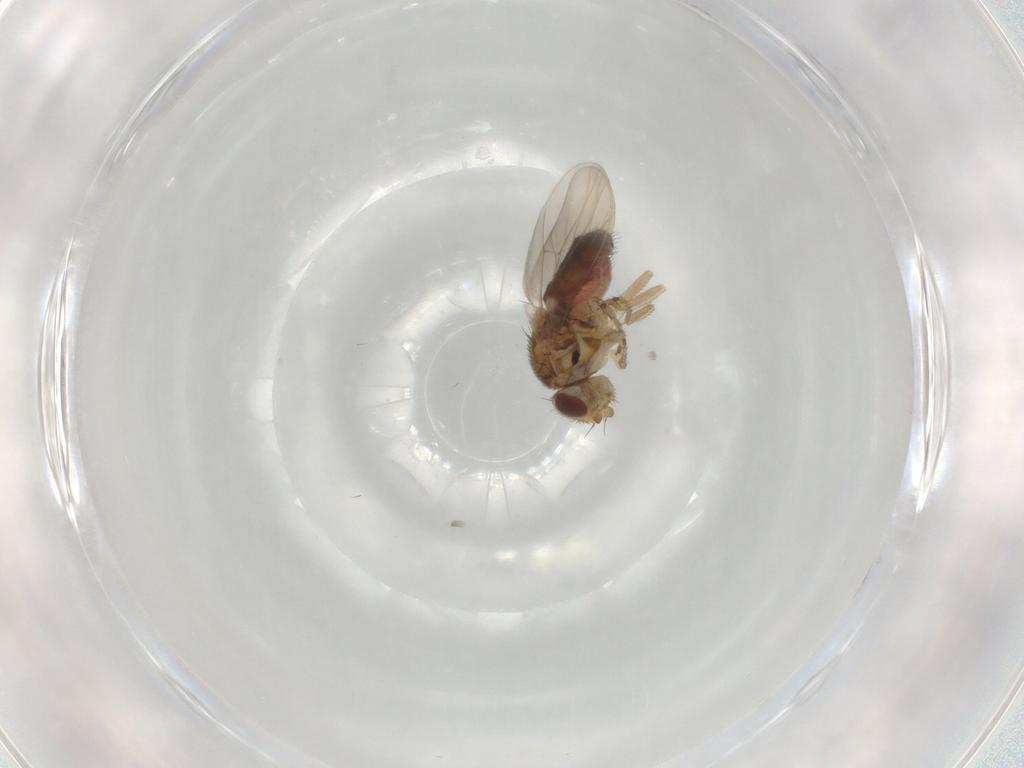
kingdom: Animalia
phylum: Arthropoda
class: Insecta
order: Diptera
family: Chloropidae
